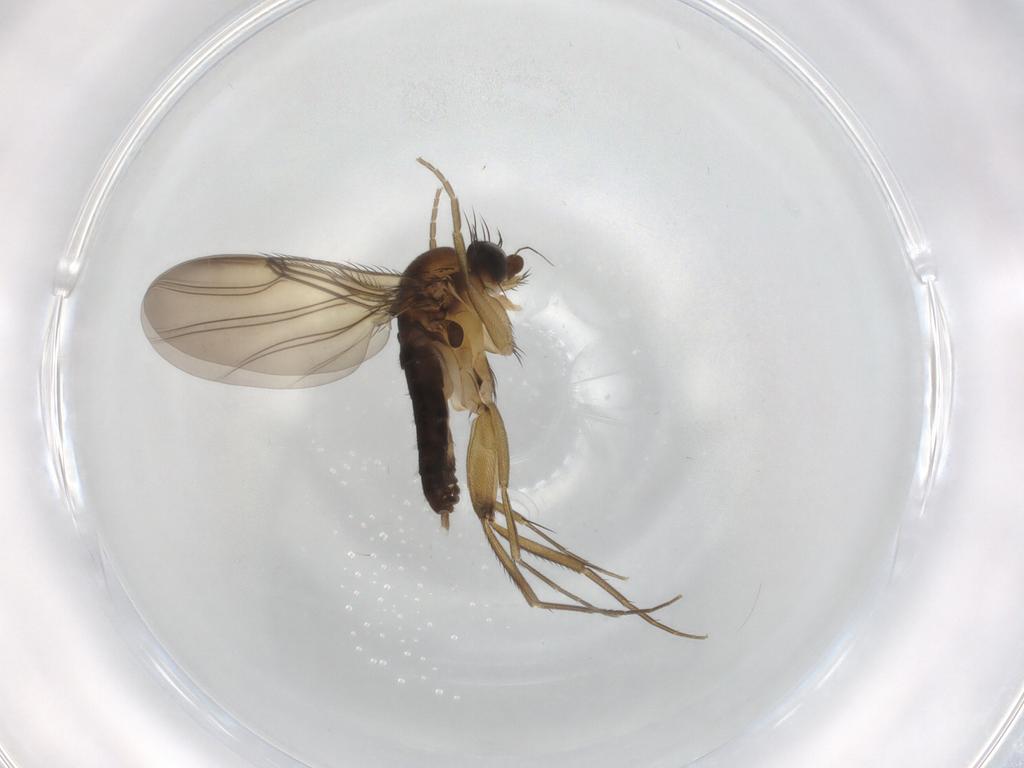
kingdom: Animalia
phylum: Arthropoda
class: Insecta
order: Diptera
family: Phoridae
